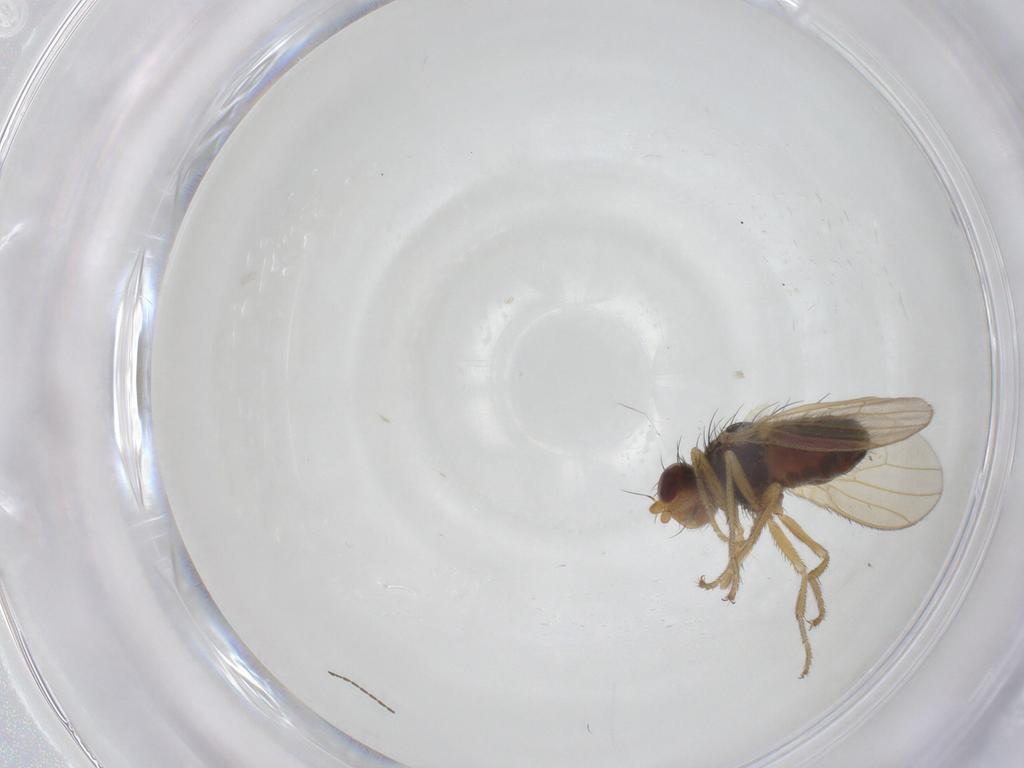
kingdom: Animalia
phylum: Arthropoda
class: Insecta
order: Diptera
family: Heleomyzidae
